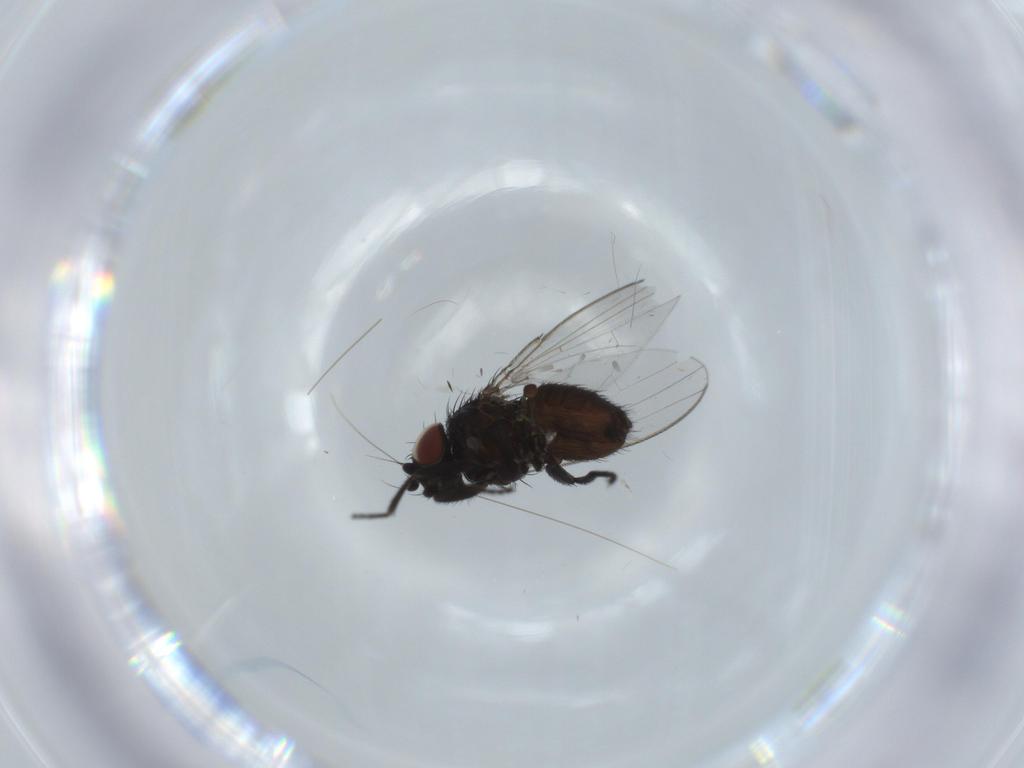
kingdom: Animalia
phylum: Arthropoda
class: Insecta
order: Diptera
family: Milichiidae
